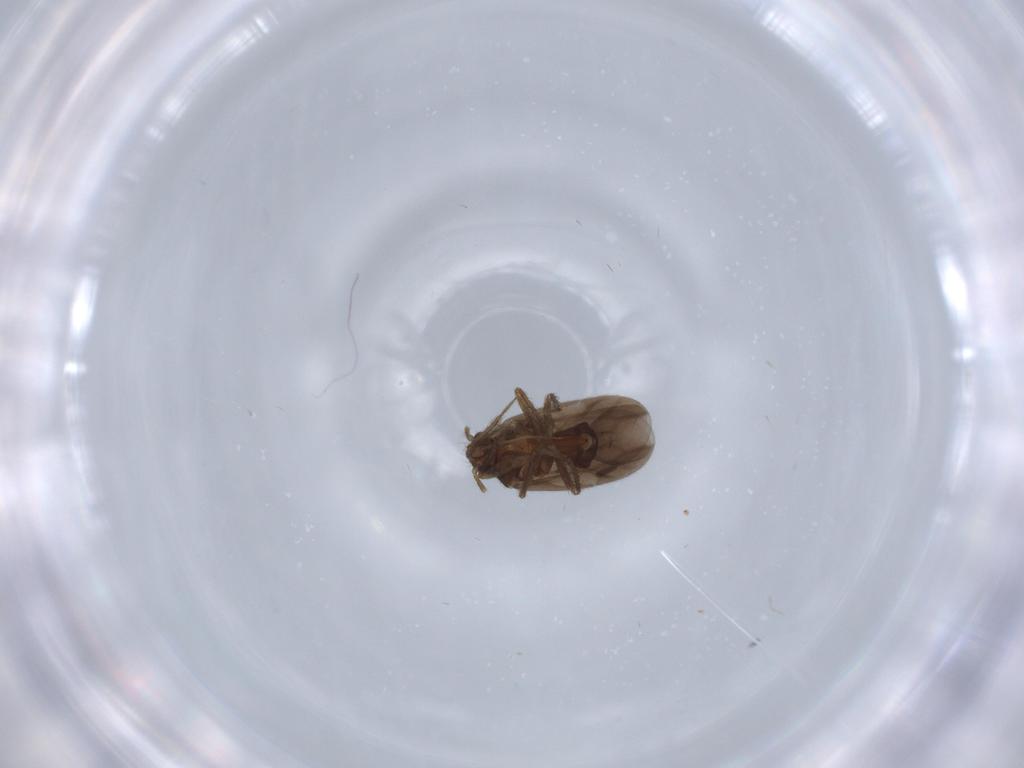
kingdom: Animalia
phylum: Arthropoda
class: Insecta
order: Hemiptera
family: Ceratocombidae
